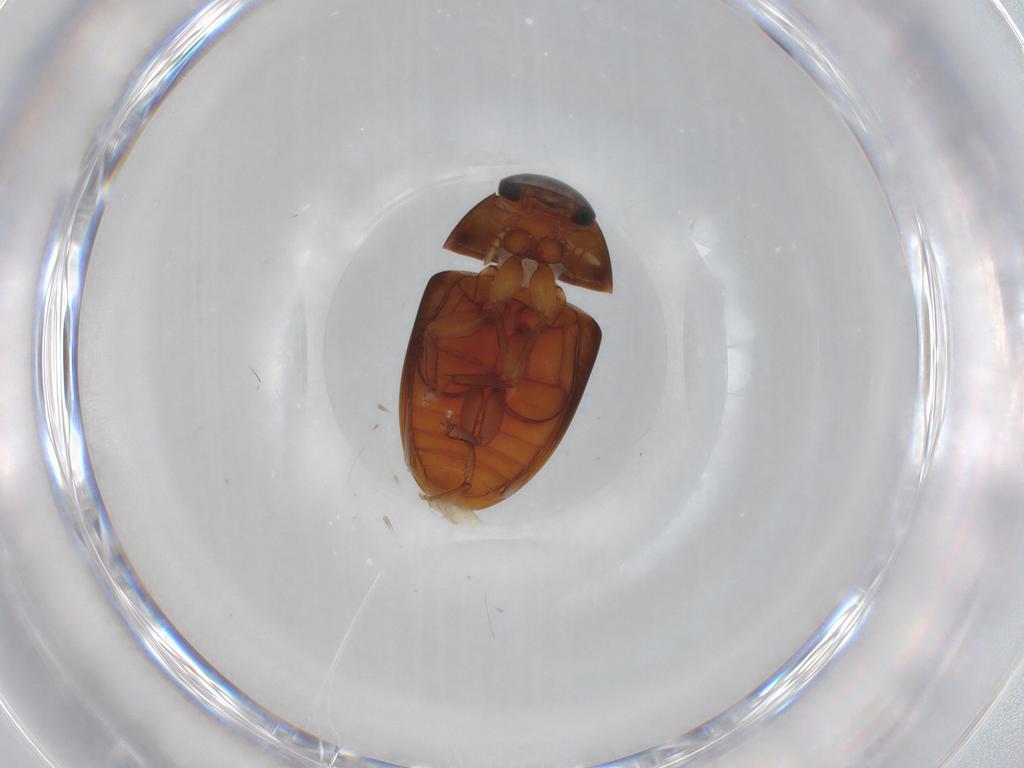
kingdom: Animalia
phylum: Arthropoda
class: Insecta
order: Coleoptera
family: Phalacridae
